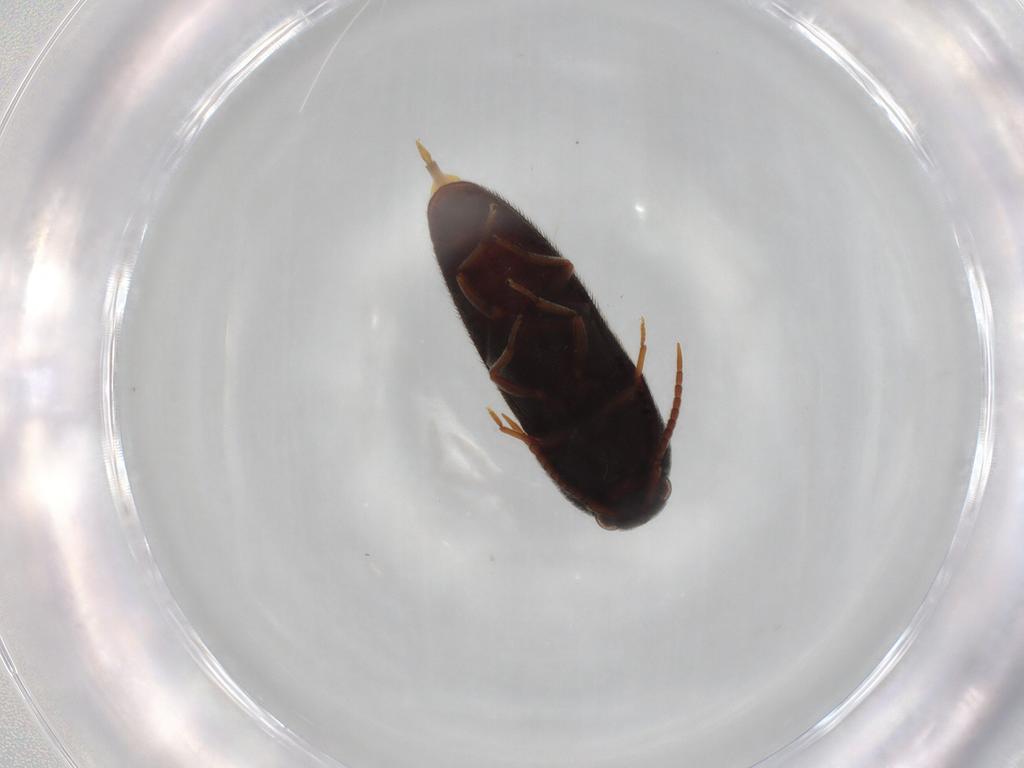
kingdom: Animalia
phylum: Arthropoda
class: Insecta
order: Coleoptera
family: Eucnemidae
